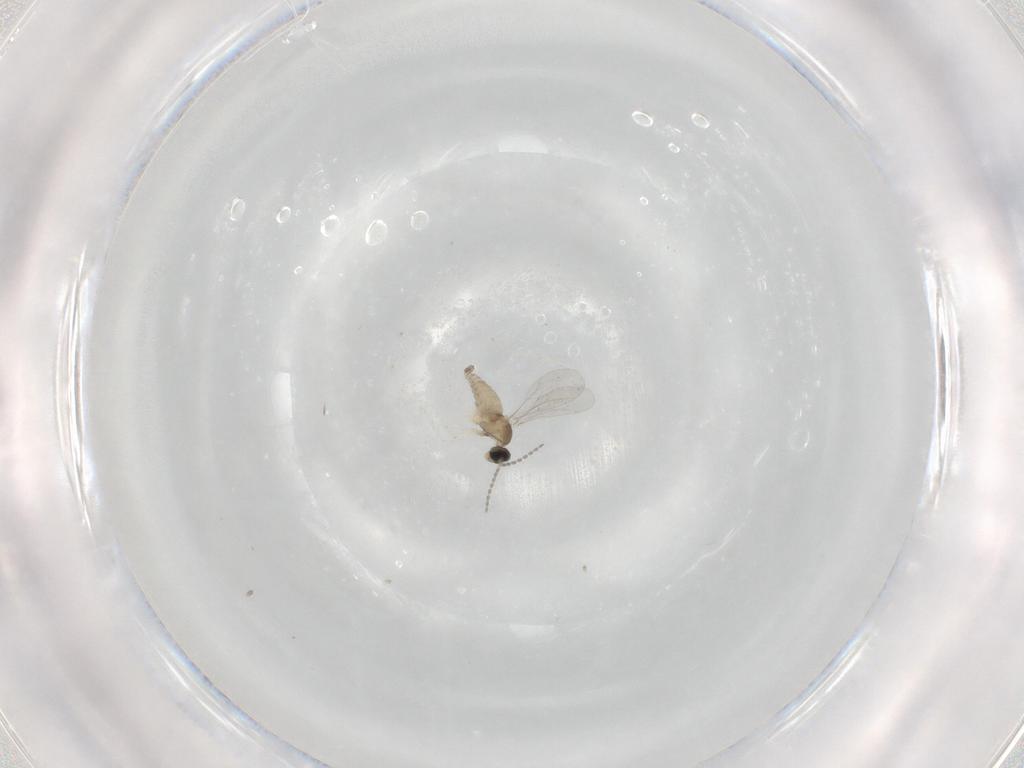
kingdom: Animalia
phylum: Arthropoda
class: Insecta
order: Diptera
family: Cecidomyiidae
